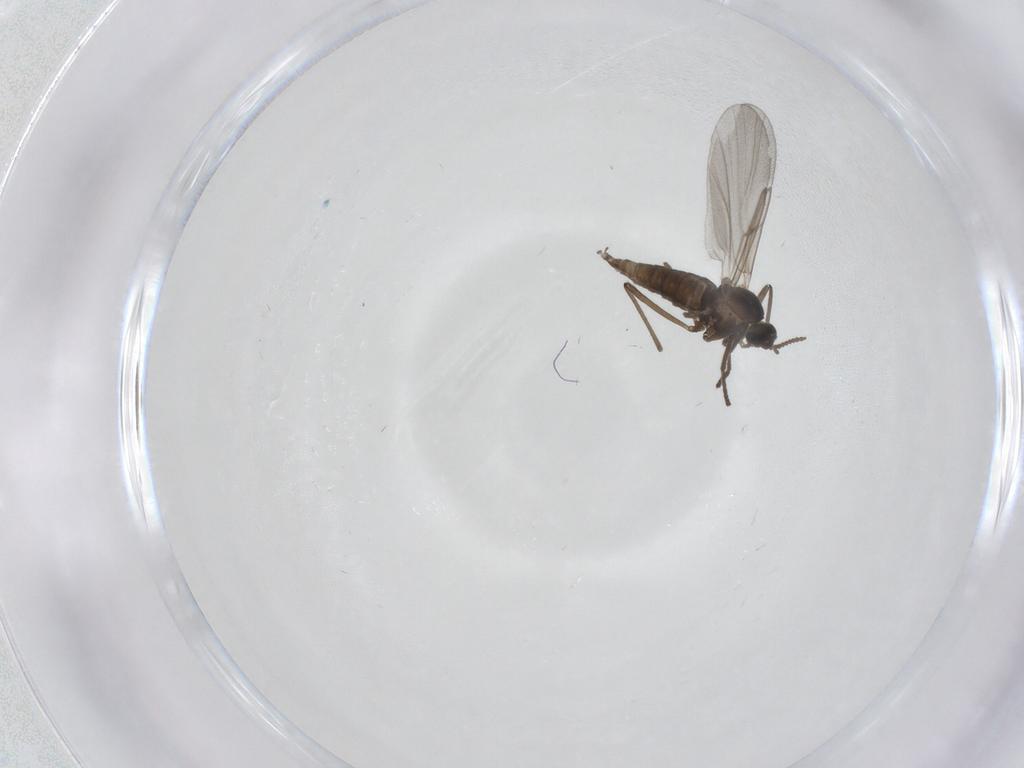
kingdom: Animalia
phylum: Arthropoda
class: Insecta
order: Diptera
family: Cecidomyiidae
